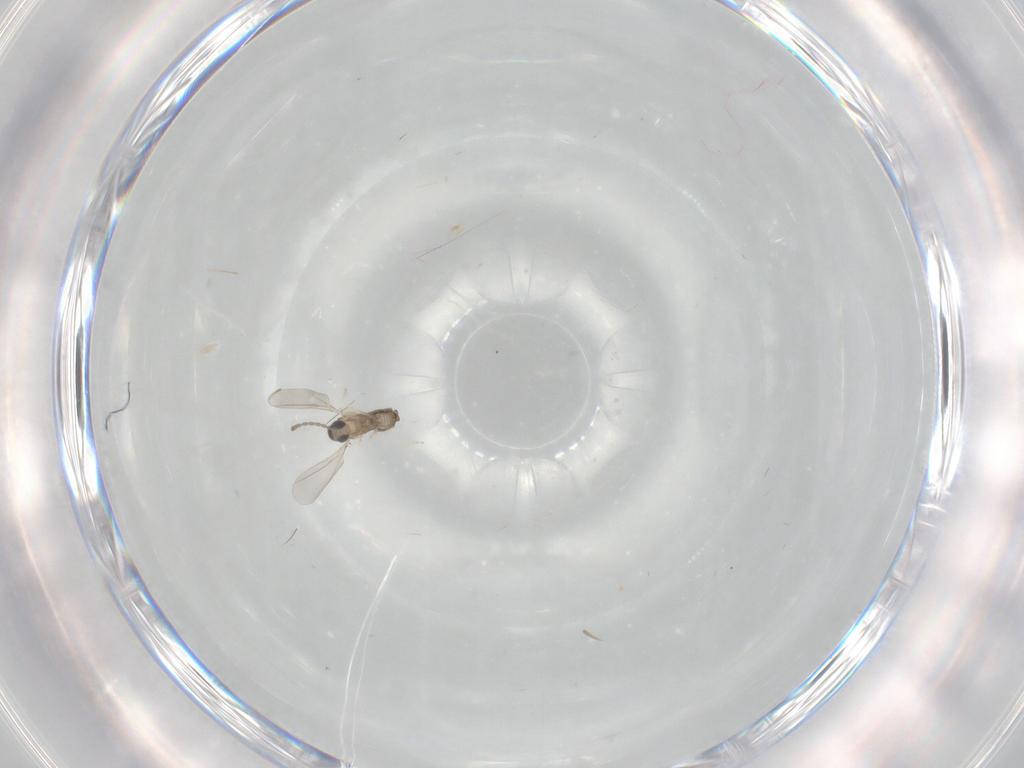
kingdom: Animalia
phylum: Arthropoda
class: Insecta
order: Diptera
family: Cecidomyiidae
